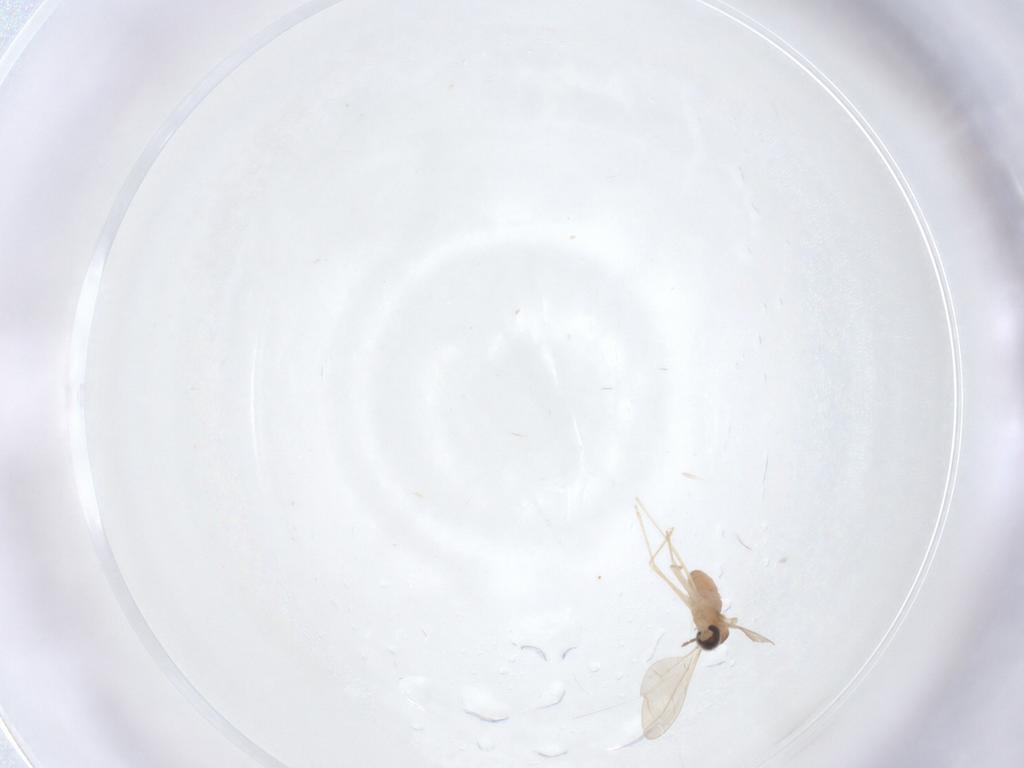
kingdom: Animalia
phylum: Arthropoda
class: Insecta
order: Diptera
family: Cecidomyiidae
